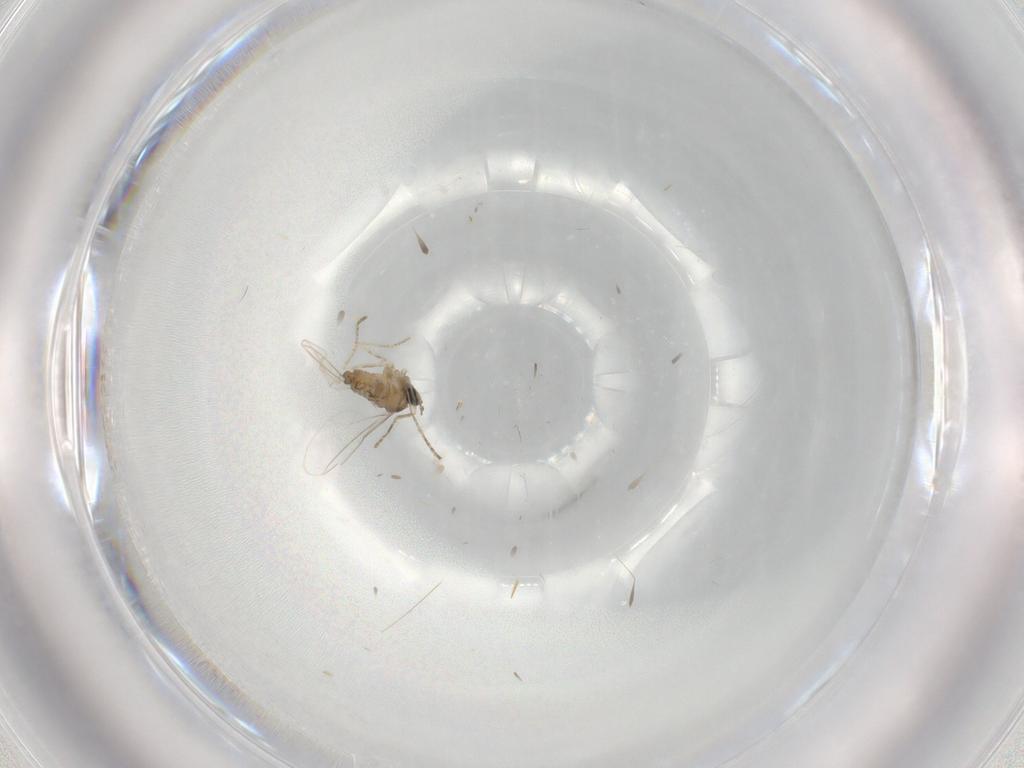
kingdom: Animalia
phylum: Arthropoda
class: Insecta
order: Diptera
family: Cecidomyiidae
